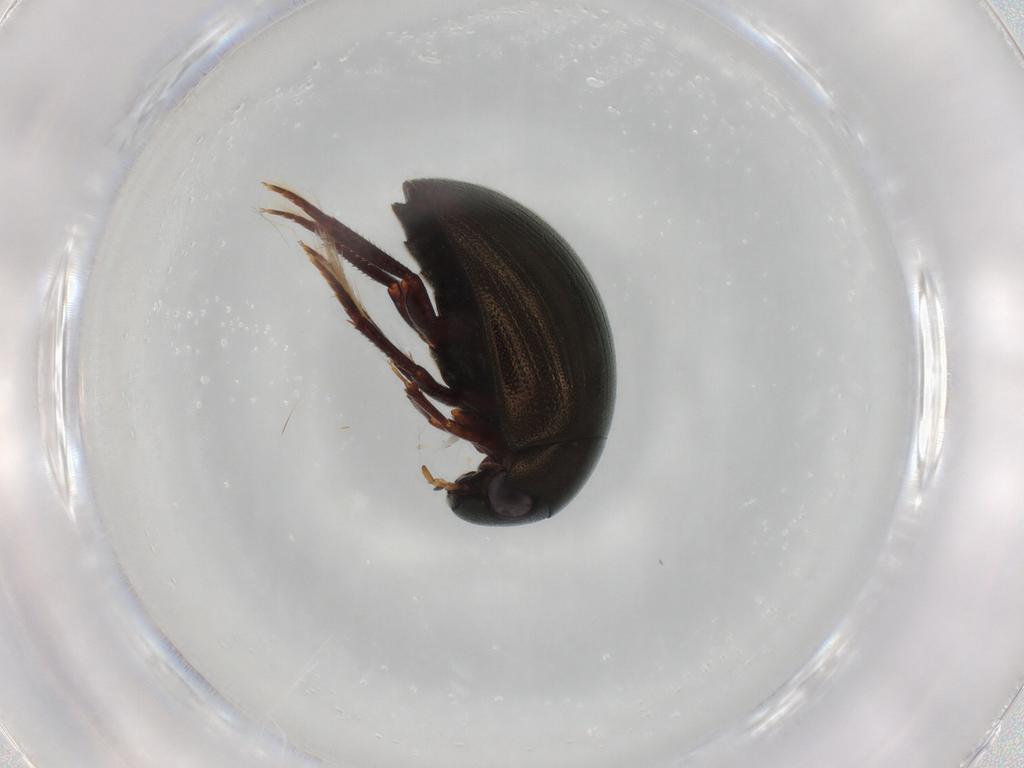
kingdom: Animalia
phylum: Arthropoda
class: Insecta
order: Coleoptera
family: Hydrophilidae
